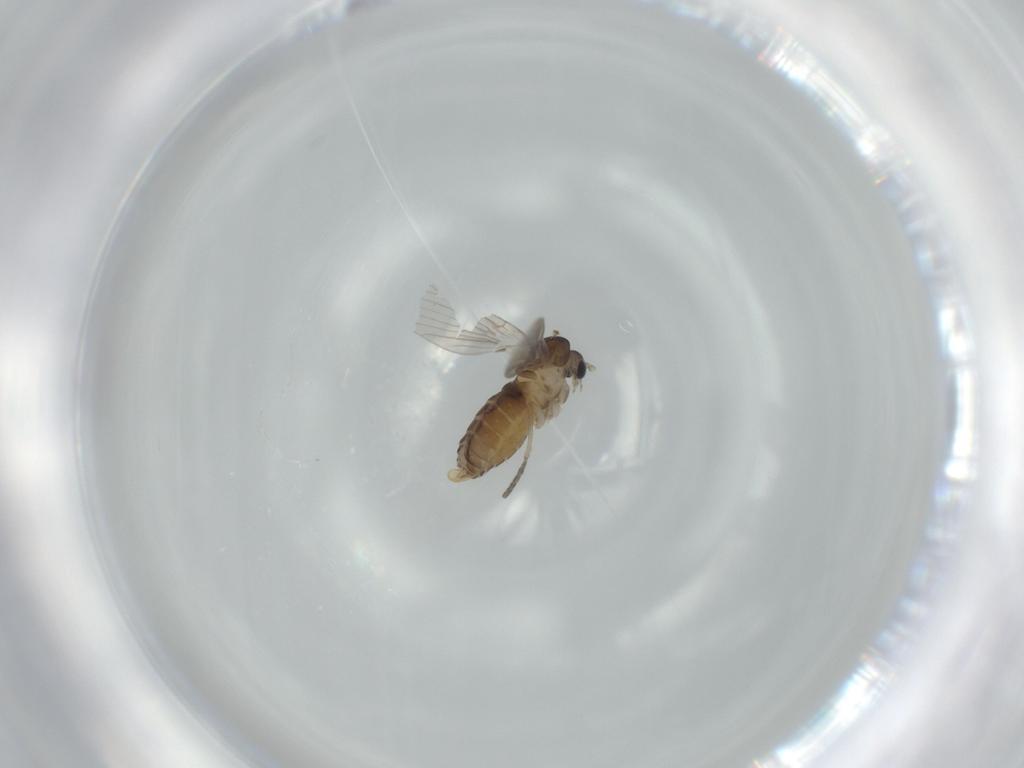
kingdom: Animalia
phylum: Arthropoda
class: Insecta
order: Diptera
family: Psychodidae
